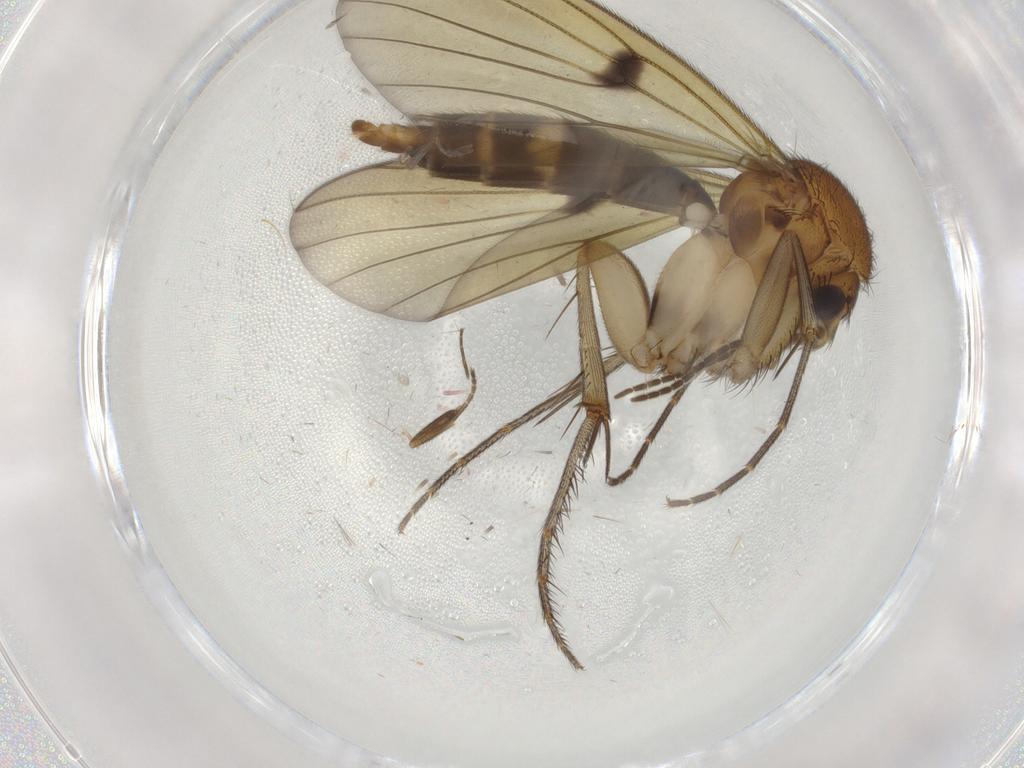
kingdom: Animalia
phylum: Arthropoda
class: Insecta
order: Diptera
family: Mycetophilidae
